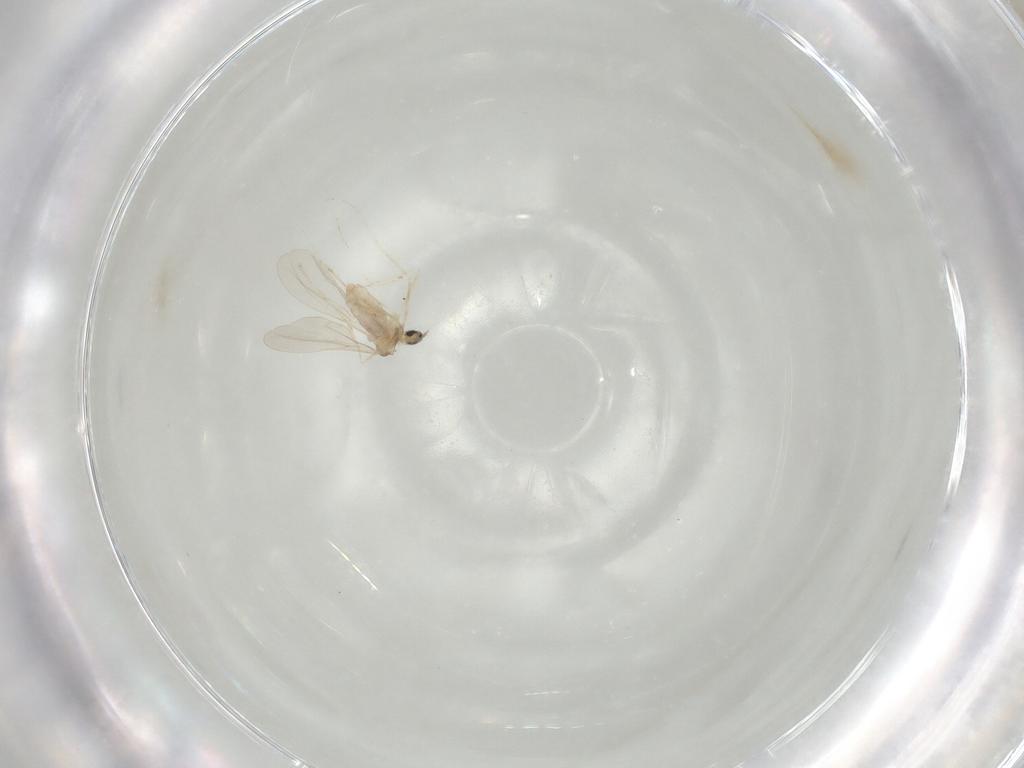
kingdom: Animalia
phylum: Arthropoda
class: Insecta
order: Diptera
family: Cecidomyiidae
